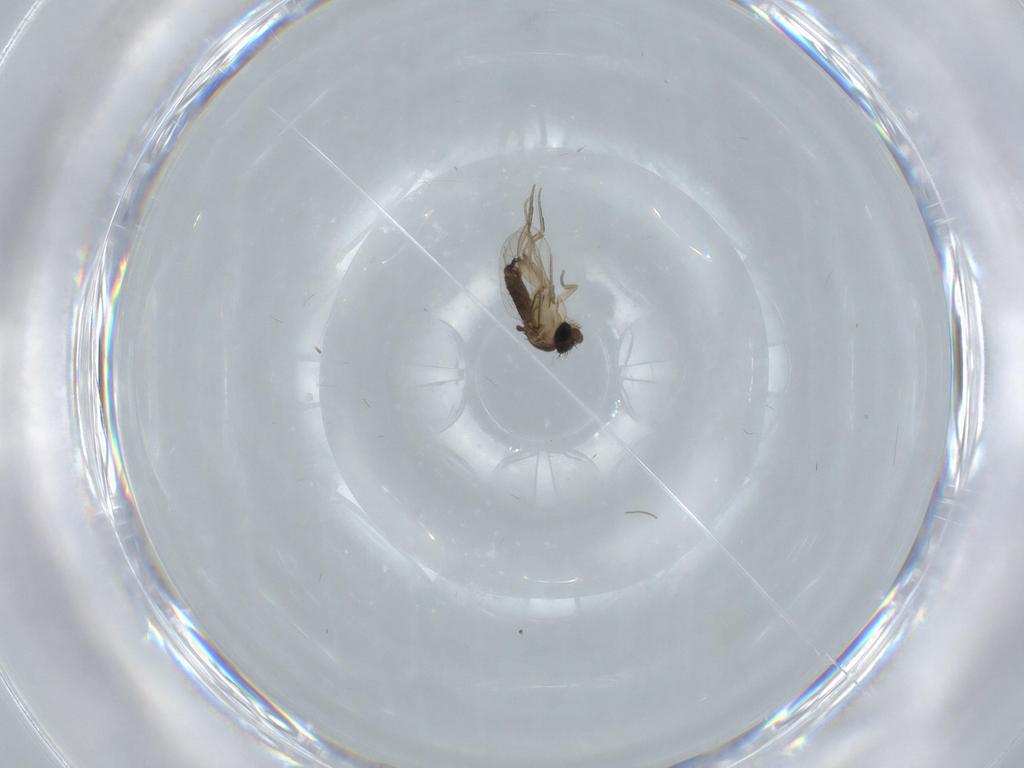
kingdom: Animalia
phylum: Arthropoda
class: Insecta
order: Diptera
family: Phoridae
